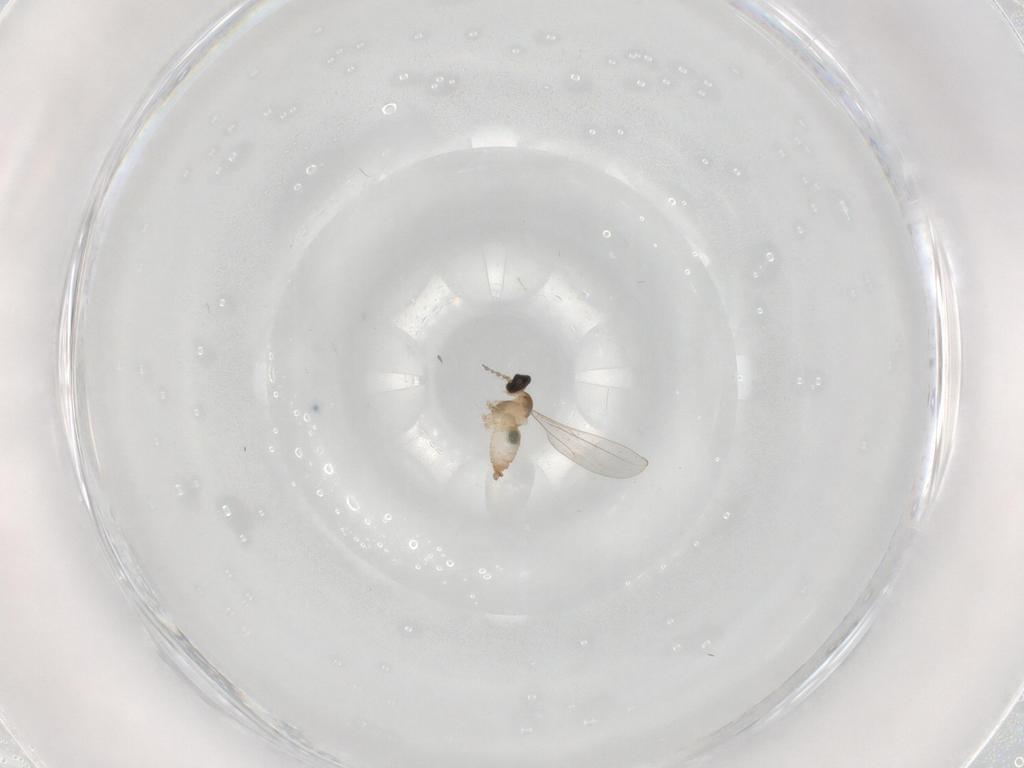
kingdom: Animalia
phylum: Arthropoda
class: Insecta
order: Diptera
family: Cecidomyiidae
